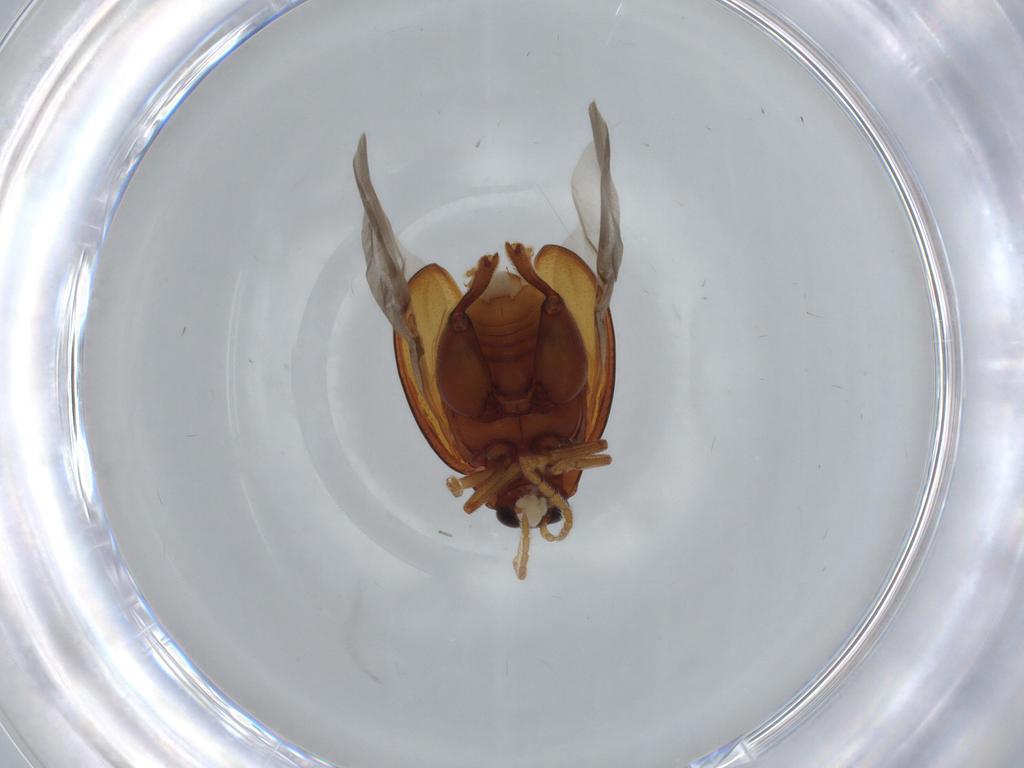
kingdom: Animalia
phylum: Arthropoda
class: Insecta
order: Coleoptera
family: Chrysomelidae
